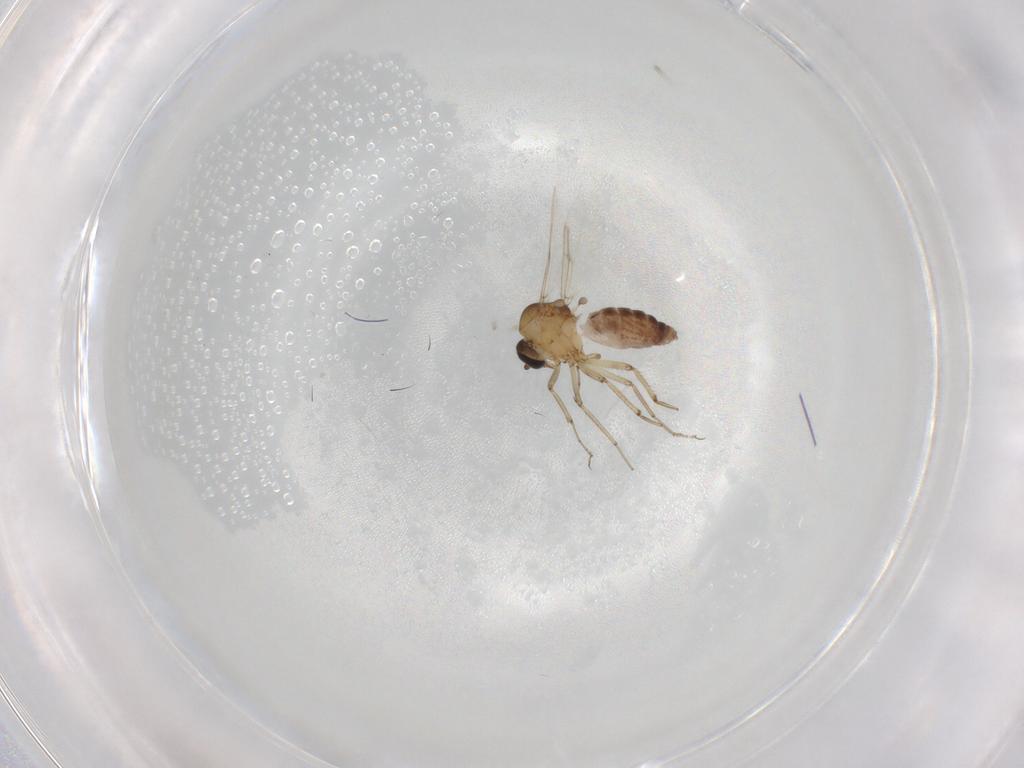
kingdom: Animalia
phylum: Arthropoda
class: Insecta
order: Diptera
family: Ceratopogonidae
